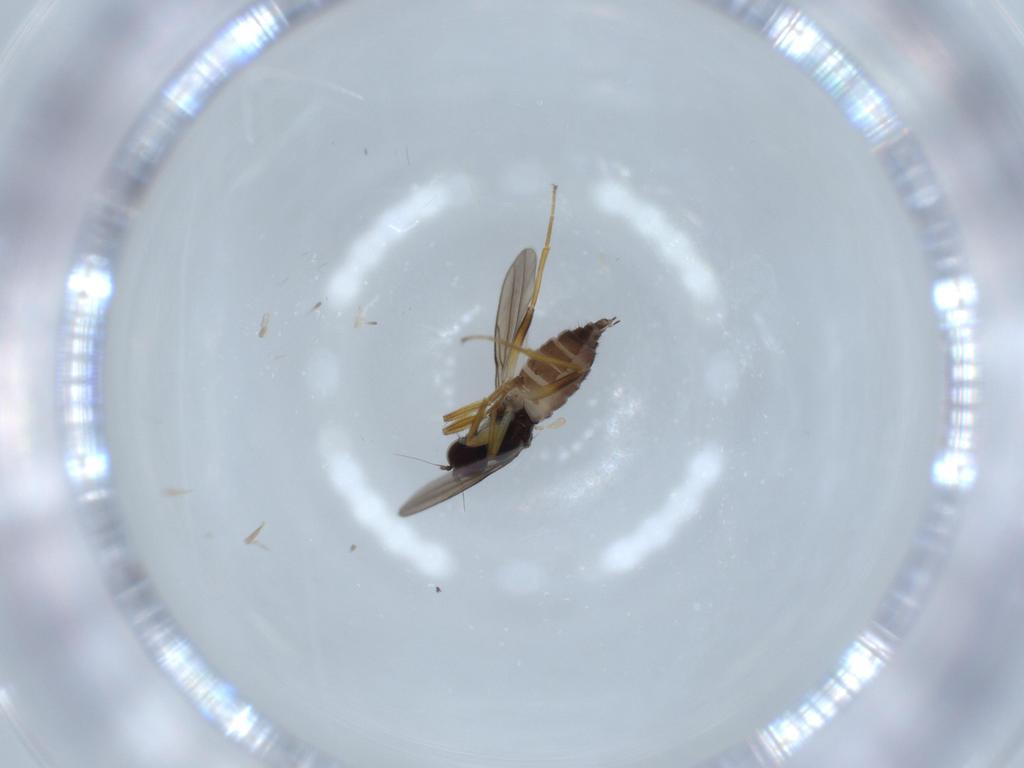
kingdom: Animalia
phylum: Arthropoda
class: Insecta
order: Diptera
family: Hybotidae
